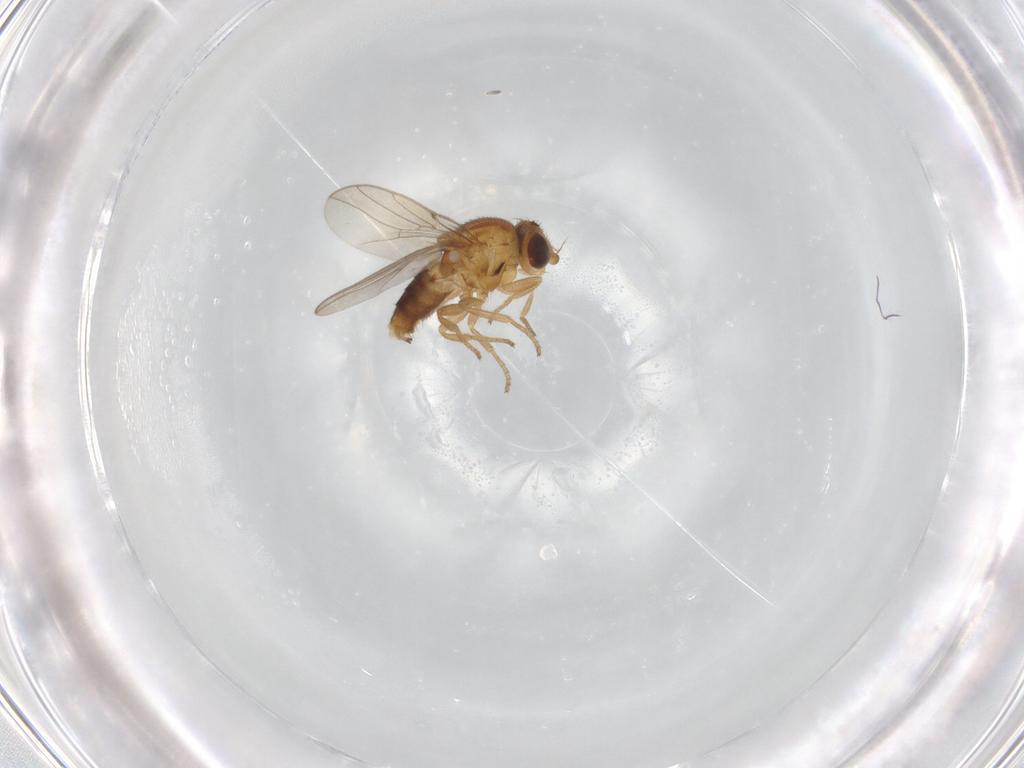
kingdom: Animalia
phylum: Arthropoda
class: Insecta
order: Diptera
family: Chloropidae
